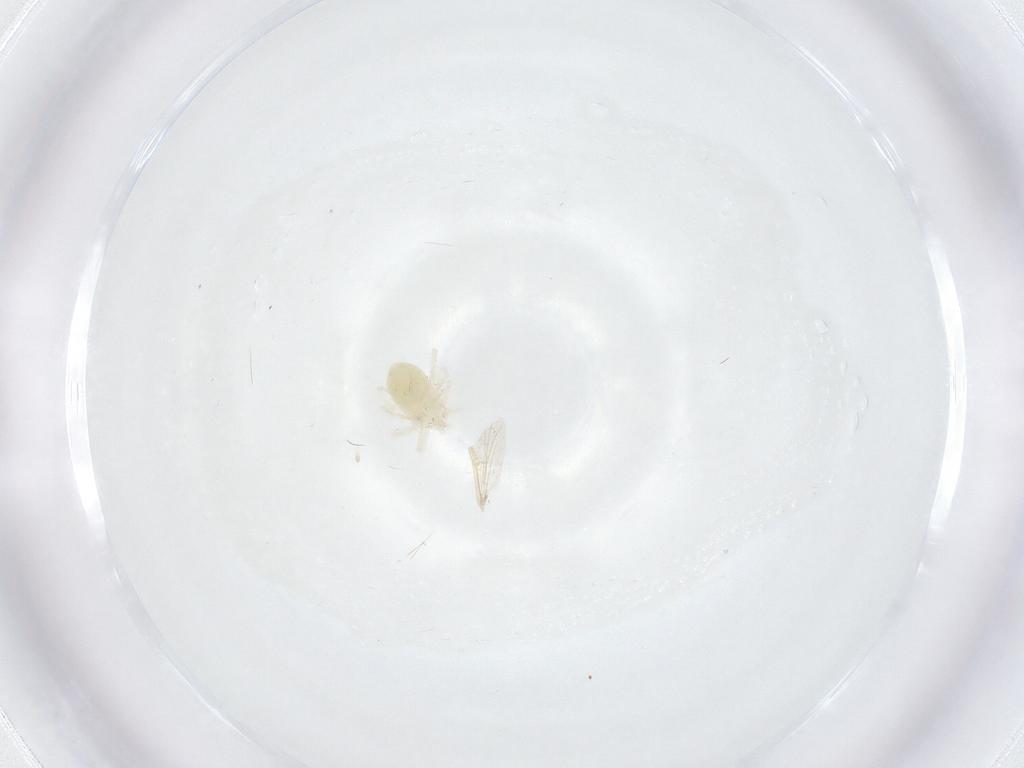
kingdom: Animalia
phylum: Arthropoda
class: Arachnida
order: Trombidiformes
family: Anystidae
